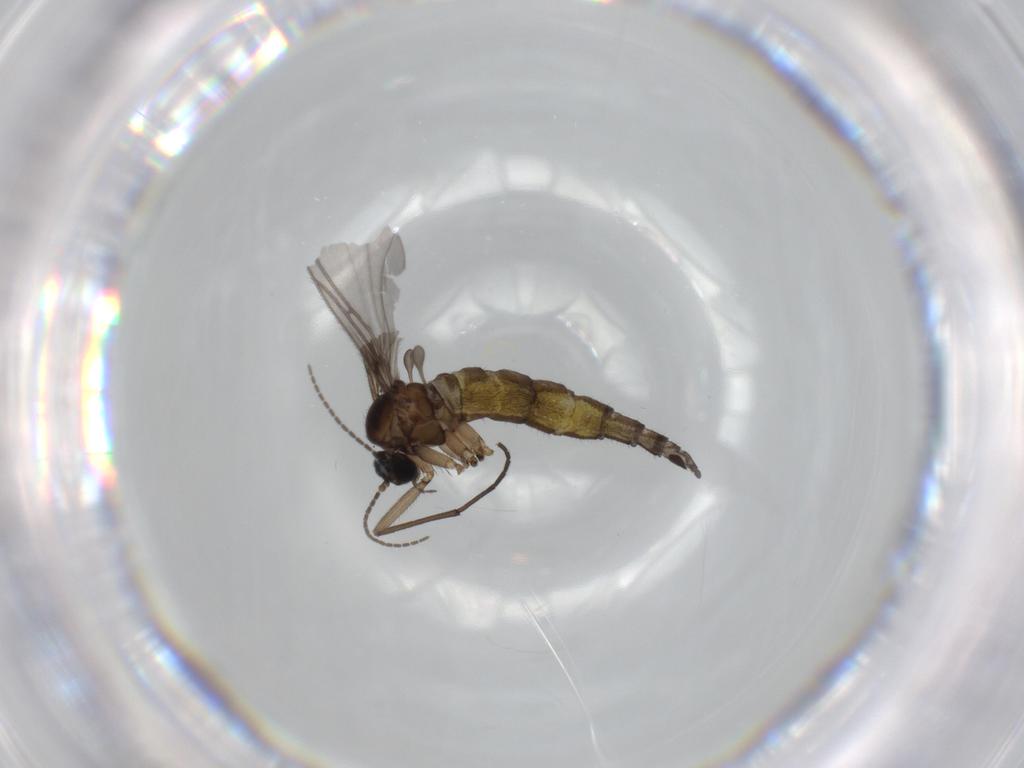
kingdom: Animalia
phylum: Arthropoda
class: Insecta
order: Diptera
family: Sciaridae
